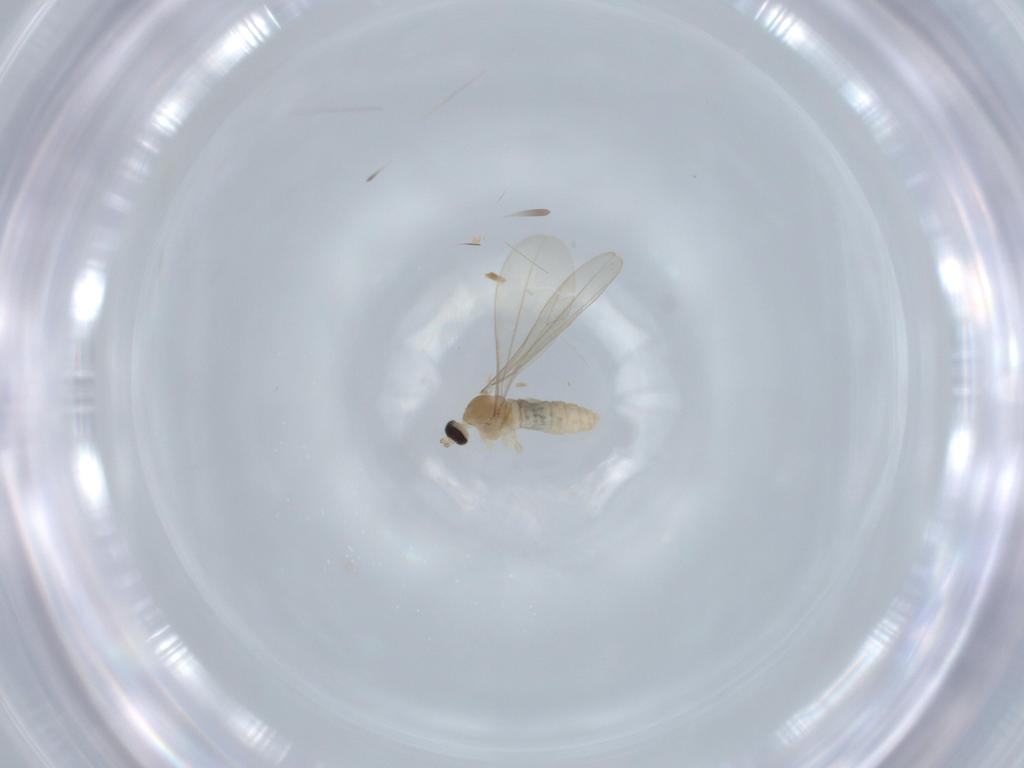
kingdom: Animalia
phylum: Arthropoda
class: Insecta
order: Diptera
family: Cecidomyiidae
